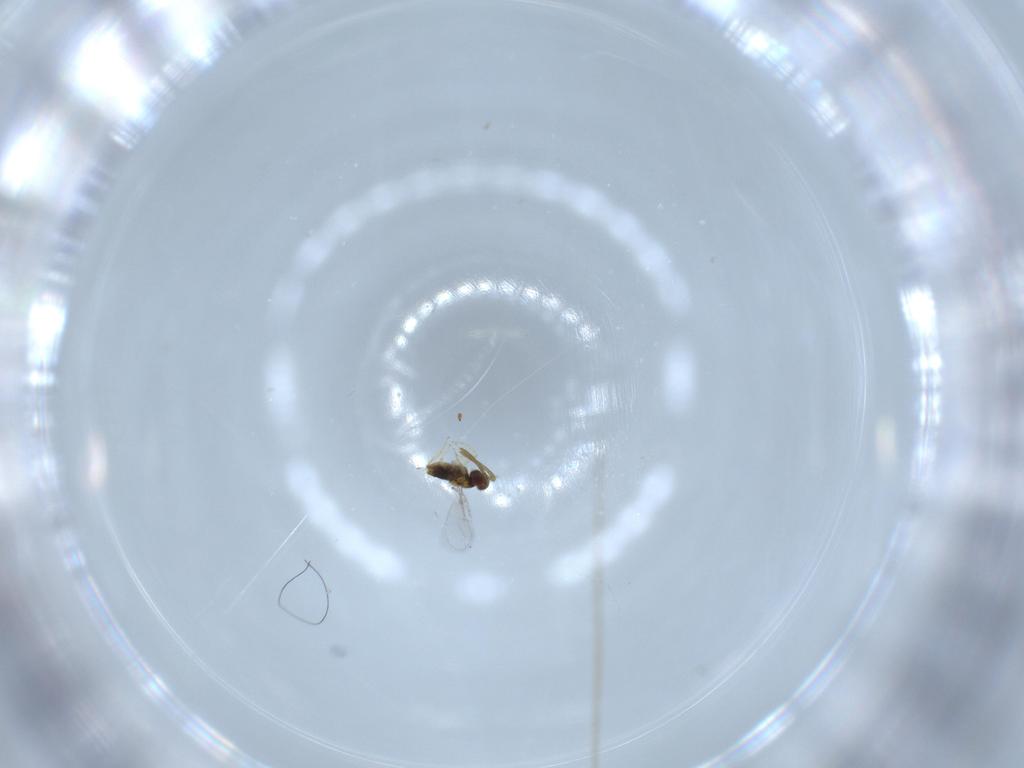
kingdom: Animalia
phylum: Arthropoda
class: Insecta
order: Hymenoptera
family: Aphelinidae
